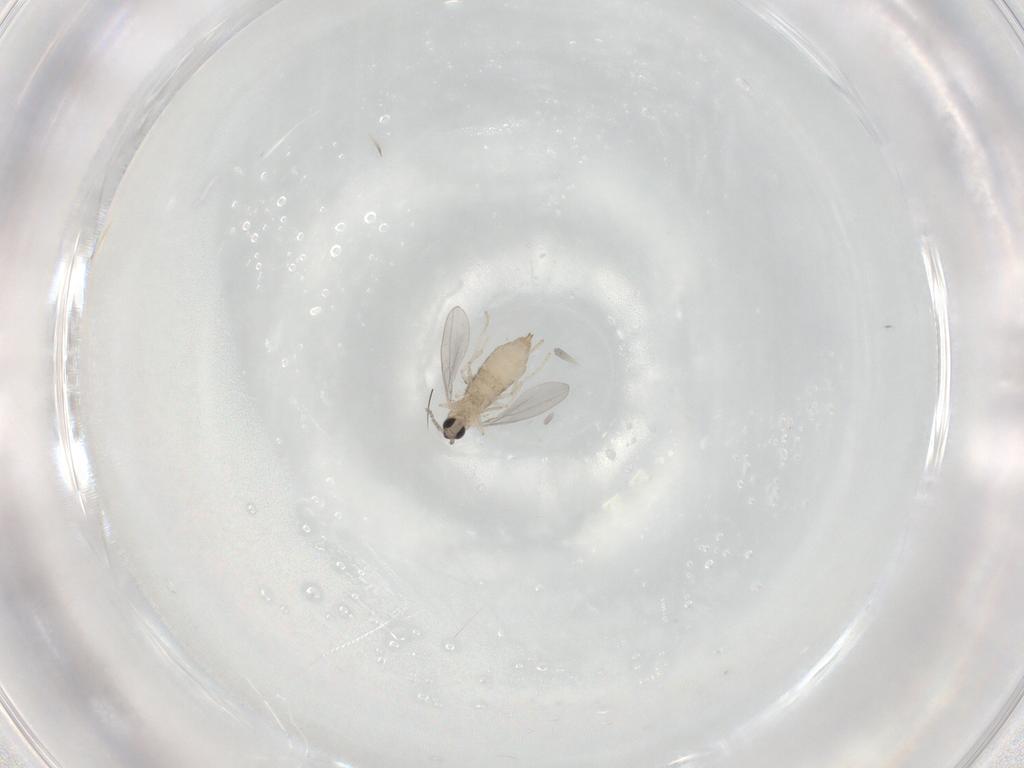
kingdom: Animalia
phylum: Arthropoda
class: Insecta
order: Diptera
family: Cecidomyiidae
